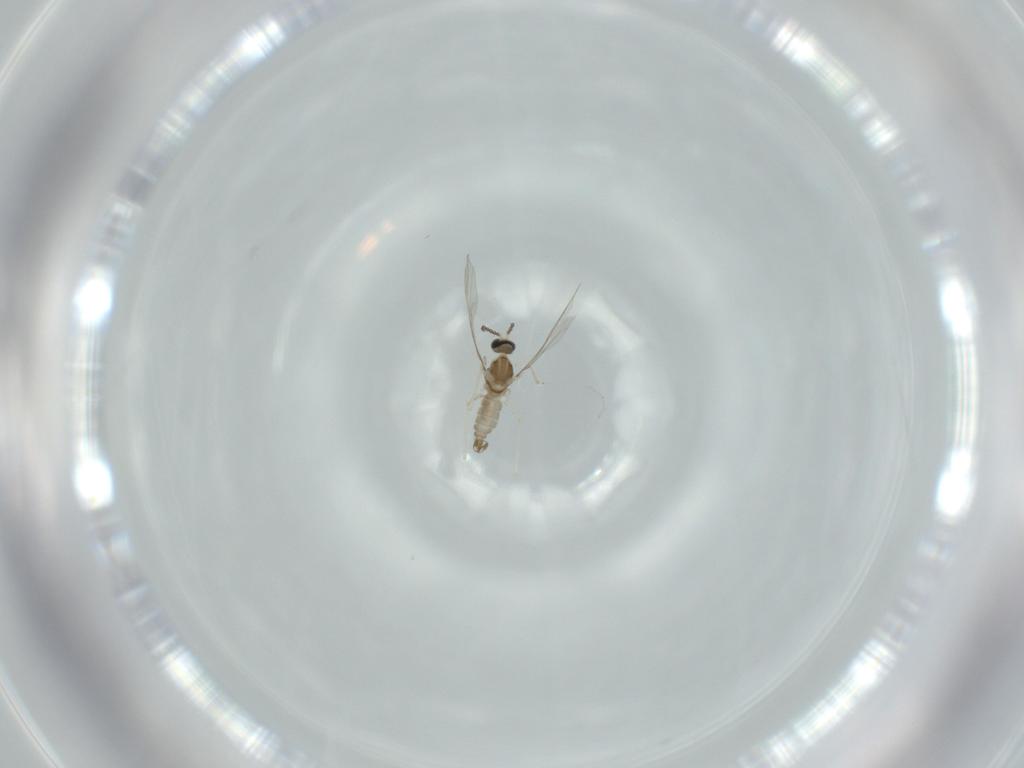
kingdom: Animalia
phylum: Arthropoda
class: Insecta
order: Diptera
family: Cecidomyiidae
